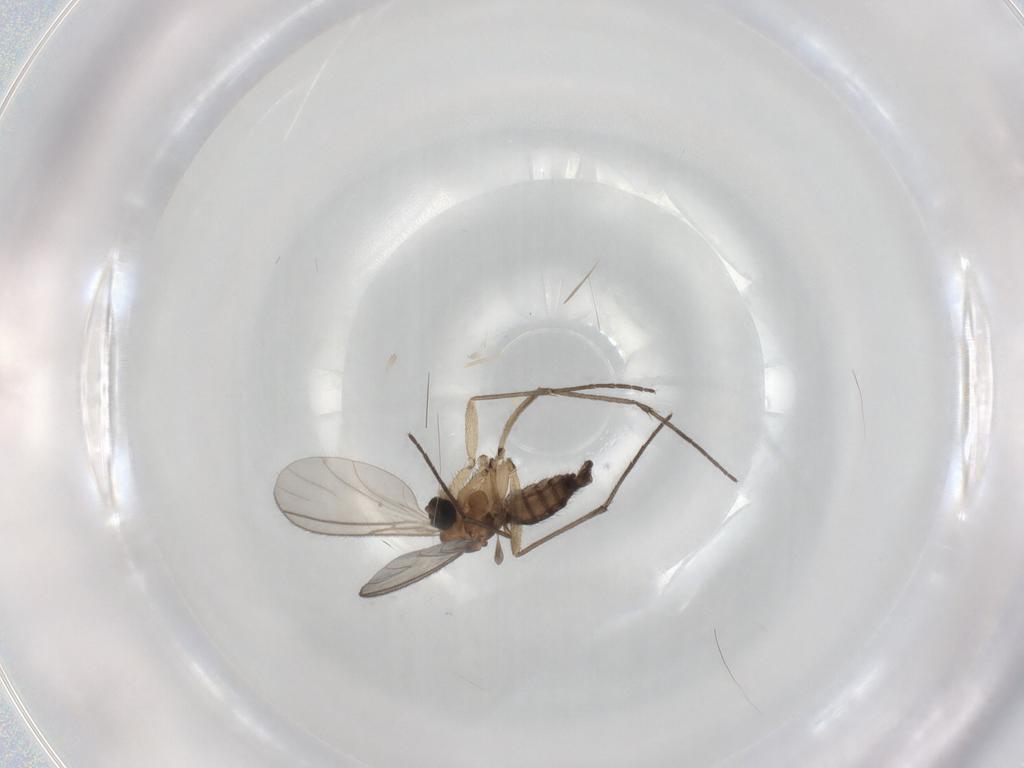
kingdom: Animalia
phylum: Arthropoda
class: Insecta
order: Diptera
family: Sciaridae
